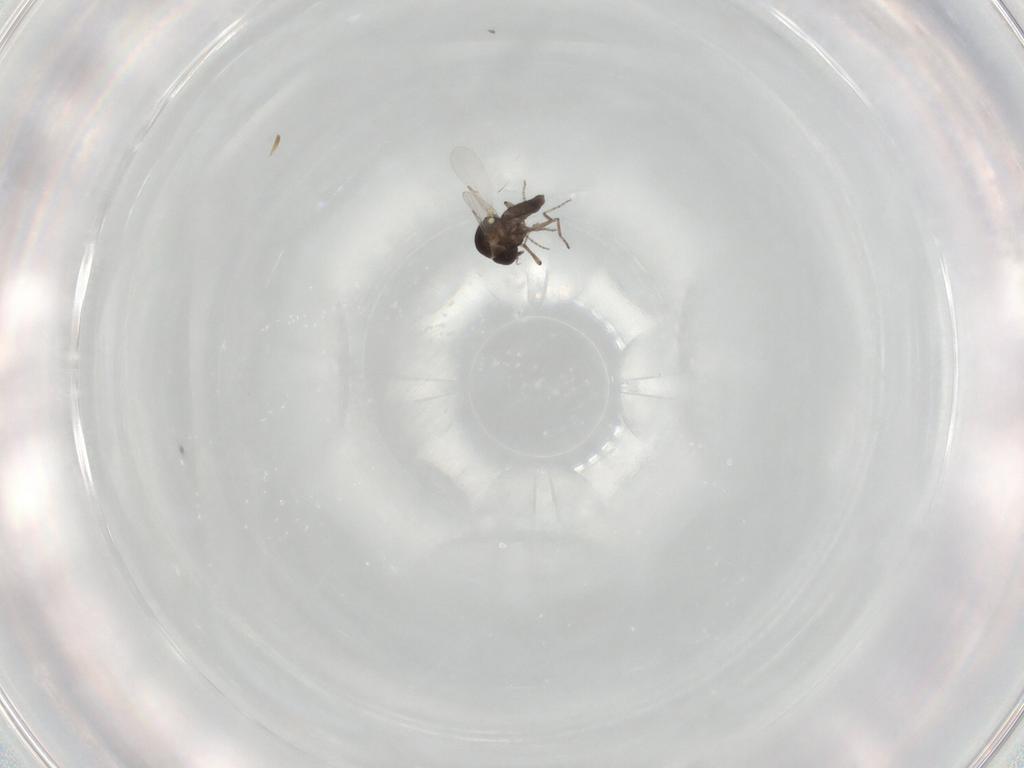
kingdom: Animalia
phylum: Arthropoda
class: Insecta
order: Diptera
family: Ceratopogonidae
